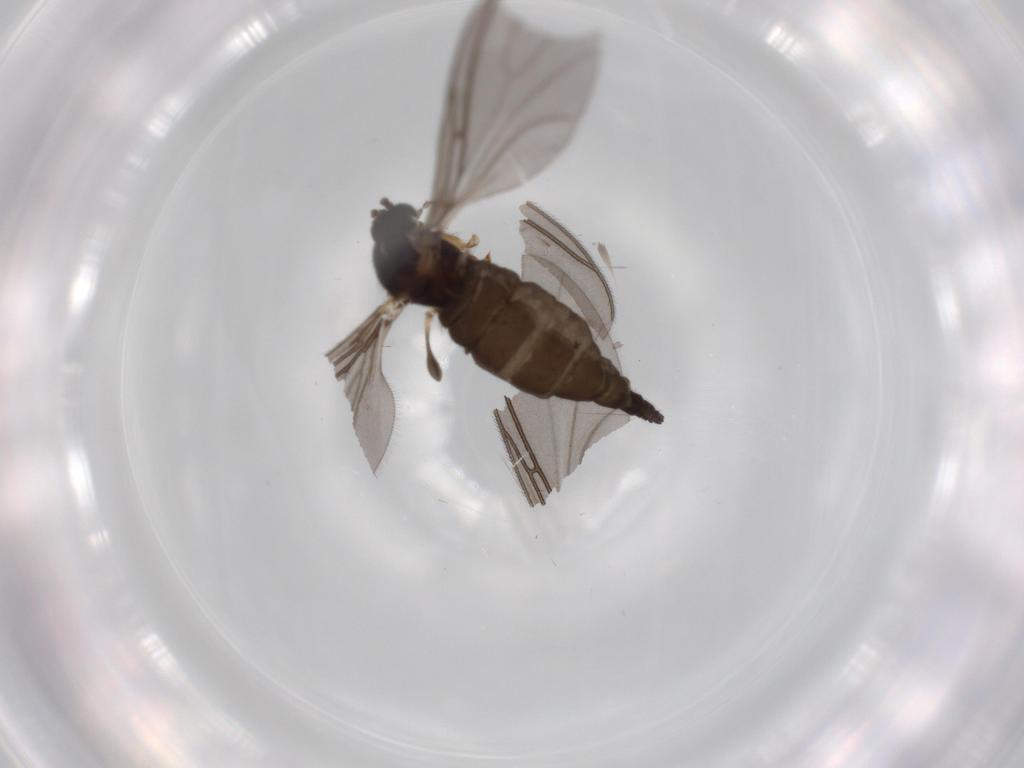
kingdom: Animalia
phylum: Arthropoda
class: Insecta
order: Diptera
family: Sciaridae
